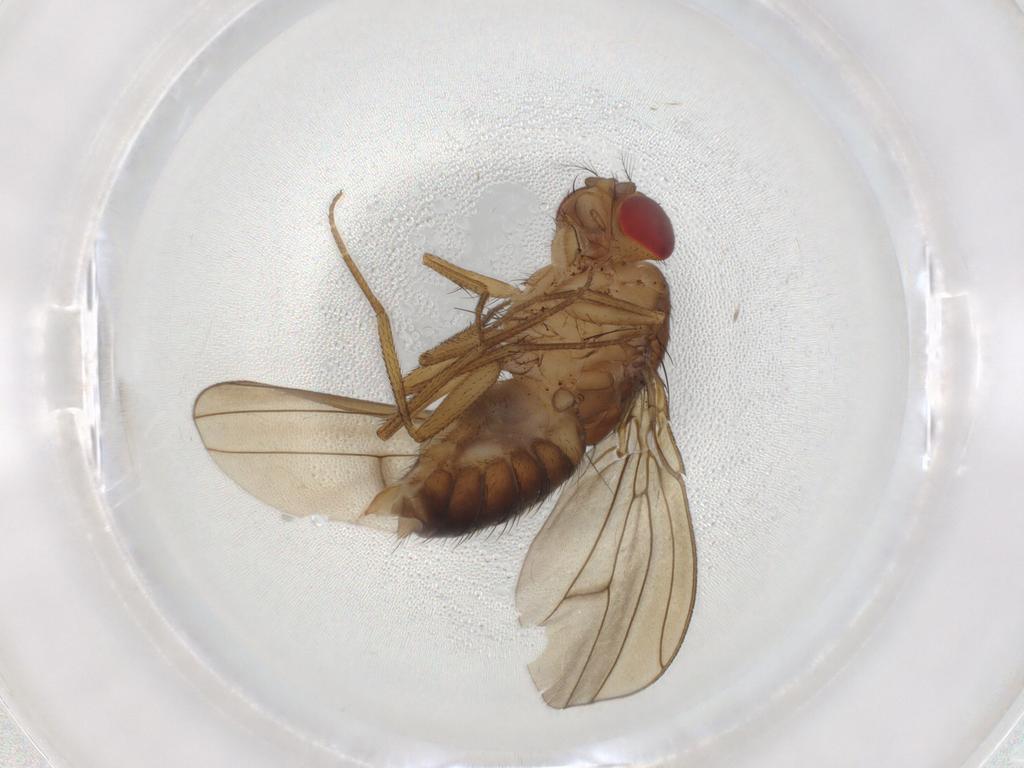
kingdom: Animalia
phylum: Arthropoda
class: Insecta
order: Diptera
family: Drosophilidae
